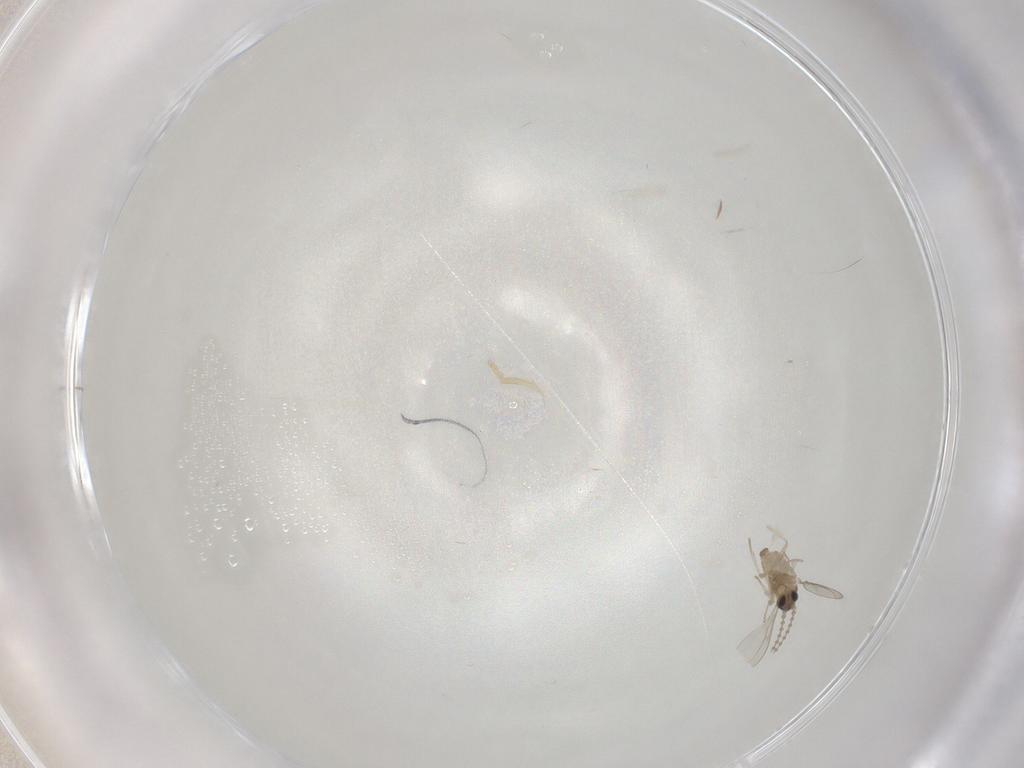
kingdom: Animalia
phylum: Arthropoda
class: Insecta
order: Diptera
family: Cecidomyiidae
